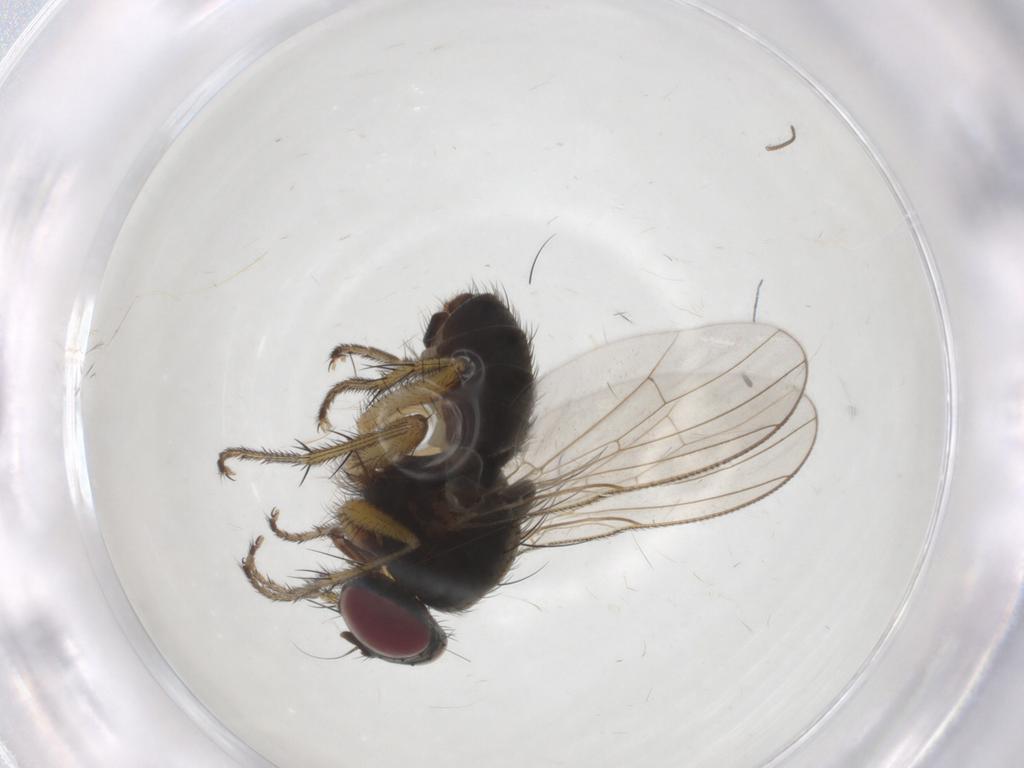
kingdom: Animalia
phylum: Arthropoda
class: Insecta
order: Diptera
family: Muscidae
